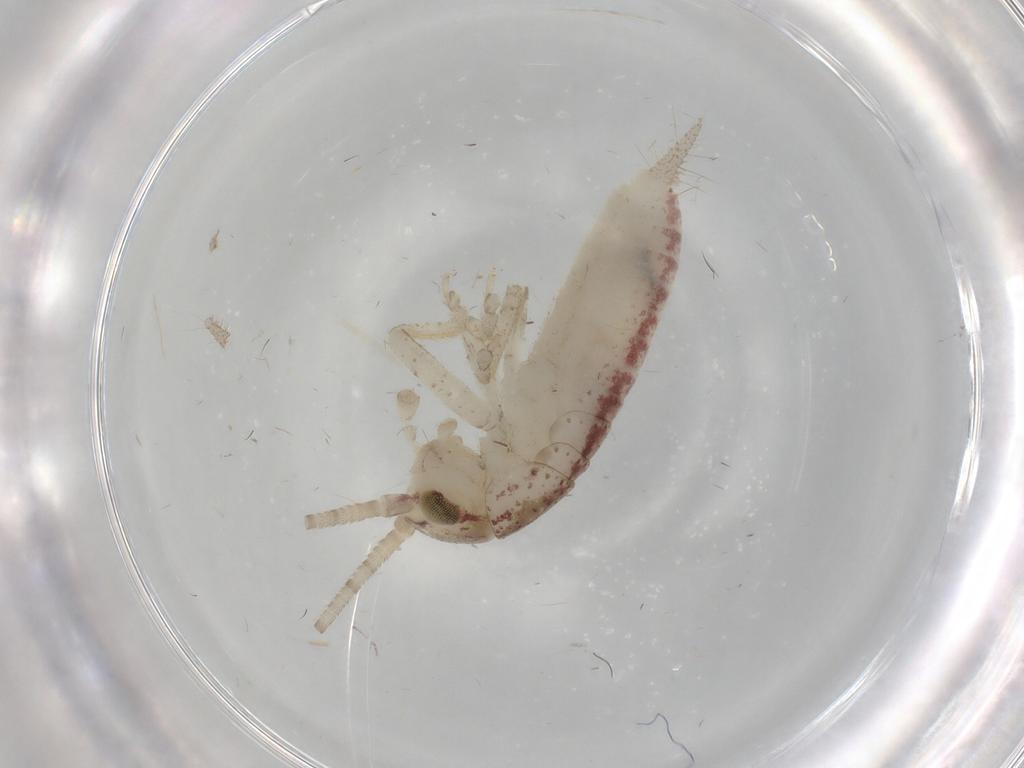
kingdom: Animalia
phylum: Arthropoda
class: Insecta
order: Orthoptera
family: Gryllidae
